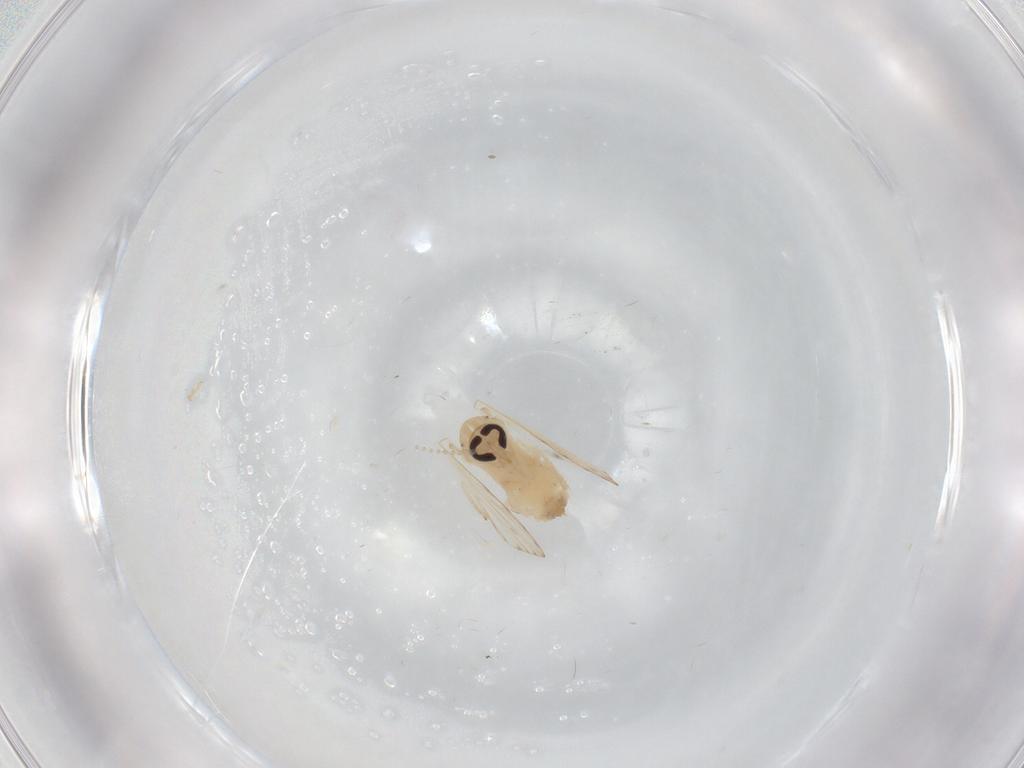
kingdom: Animalia
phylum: Arthropoda
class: Insecta
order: Diptera
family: Psychodidae
